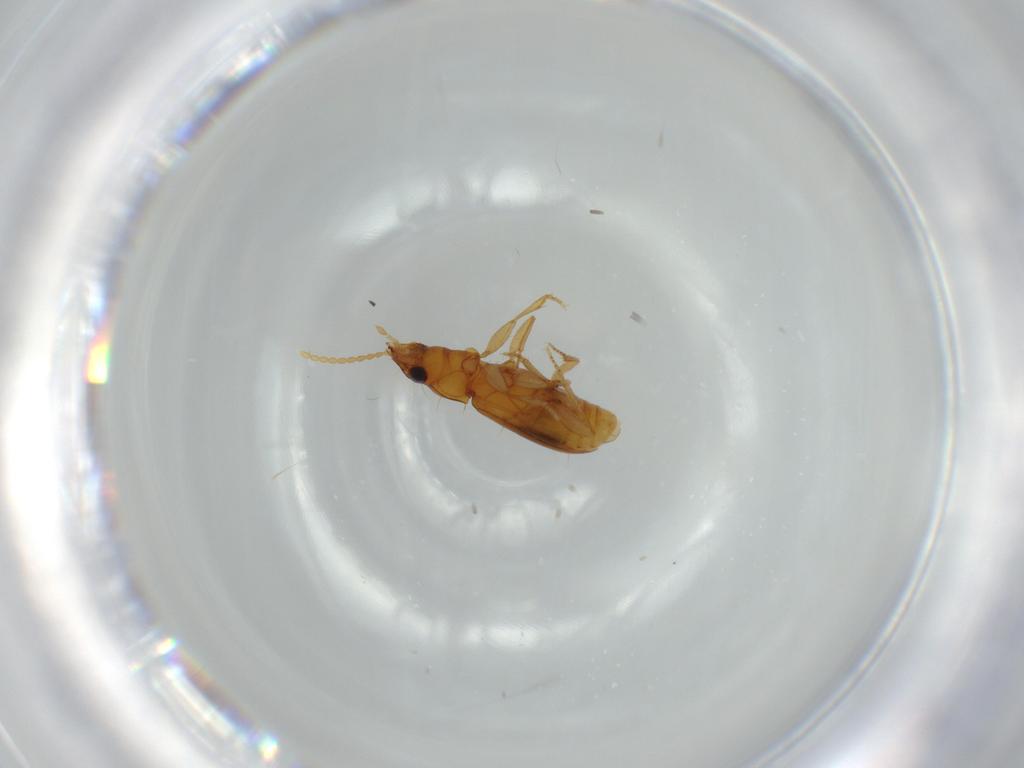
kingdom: Animalia
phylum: Arthropoda
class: Insecta
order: Coleoptera
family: Carabidae
